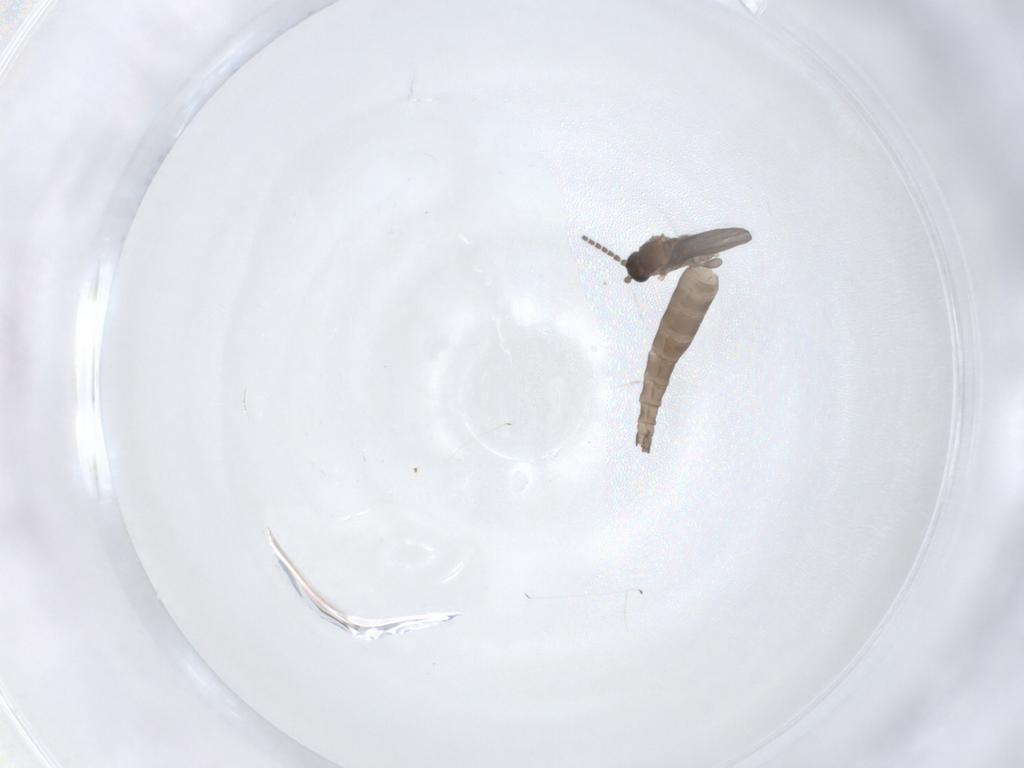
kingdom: Animalia
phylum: Arthropoda
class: Insecta
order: Diptera
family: Sciaridae
